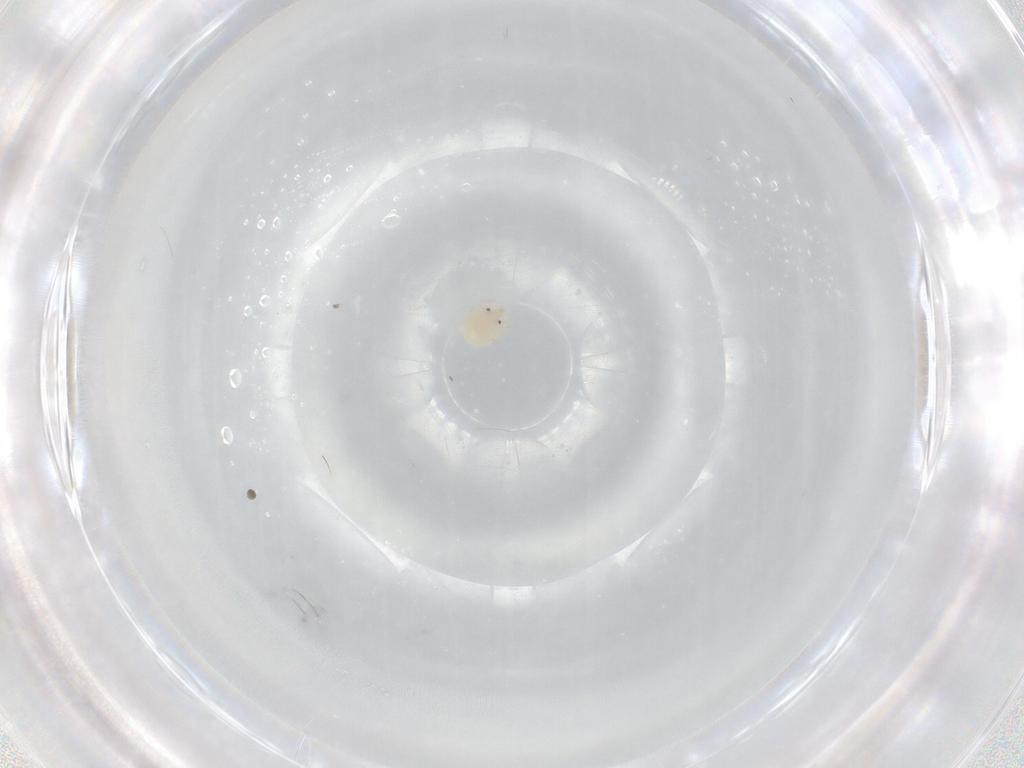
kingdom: Animalia
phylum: Arthropoda
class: Arachnida
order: Trombidiformes
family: Lebertiidae
